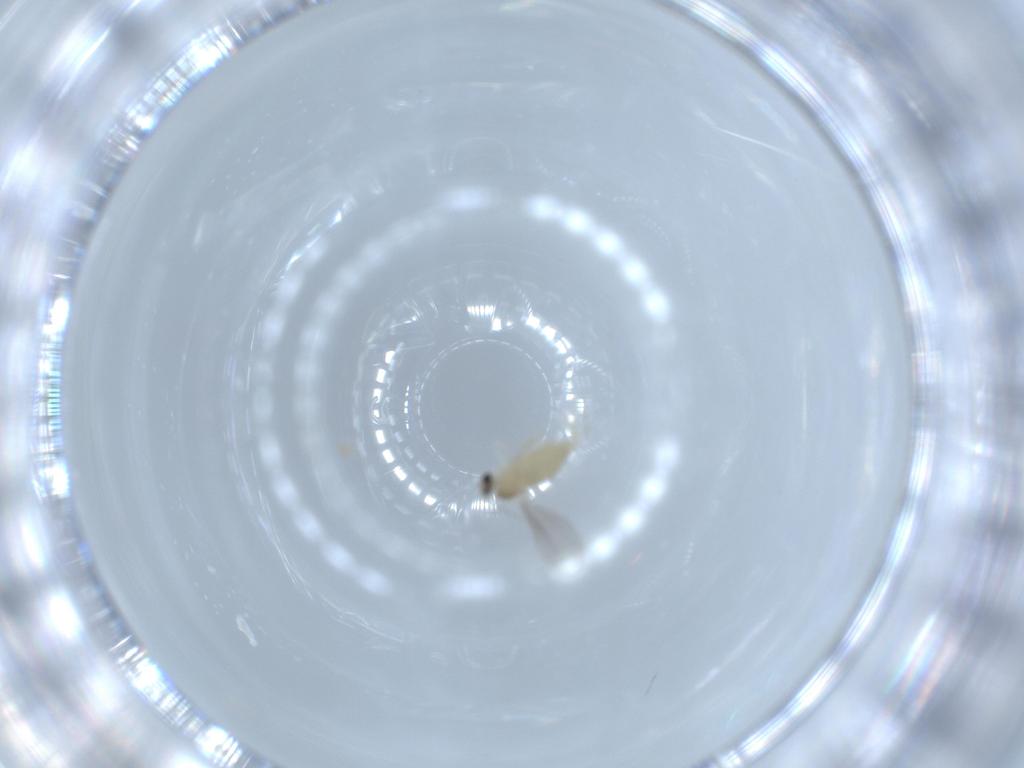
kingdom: Animalia
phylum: Arthropoda
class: Insecta
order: Diptera
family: Cecidomyiidae
